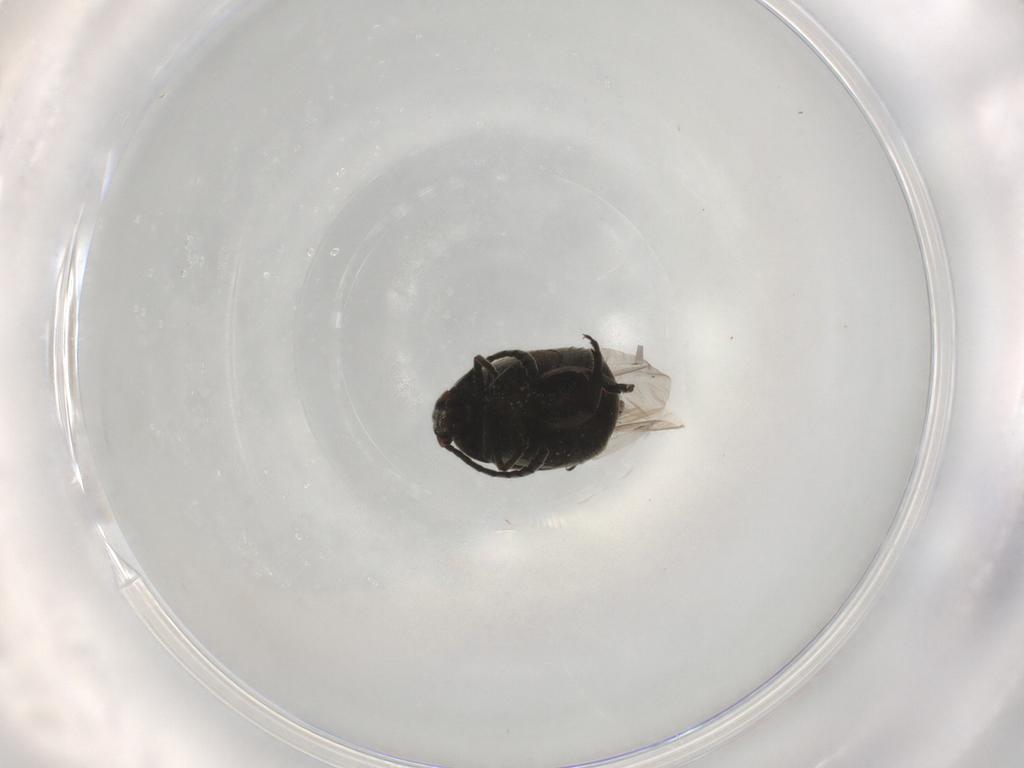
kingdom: Animalia
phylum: Arthropoda
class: Insecta
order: Coleoptera
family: Chrysomelidae
